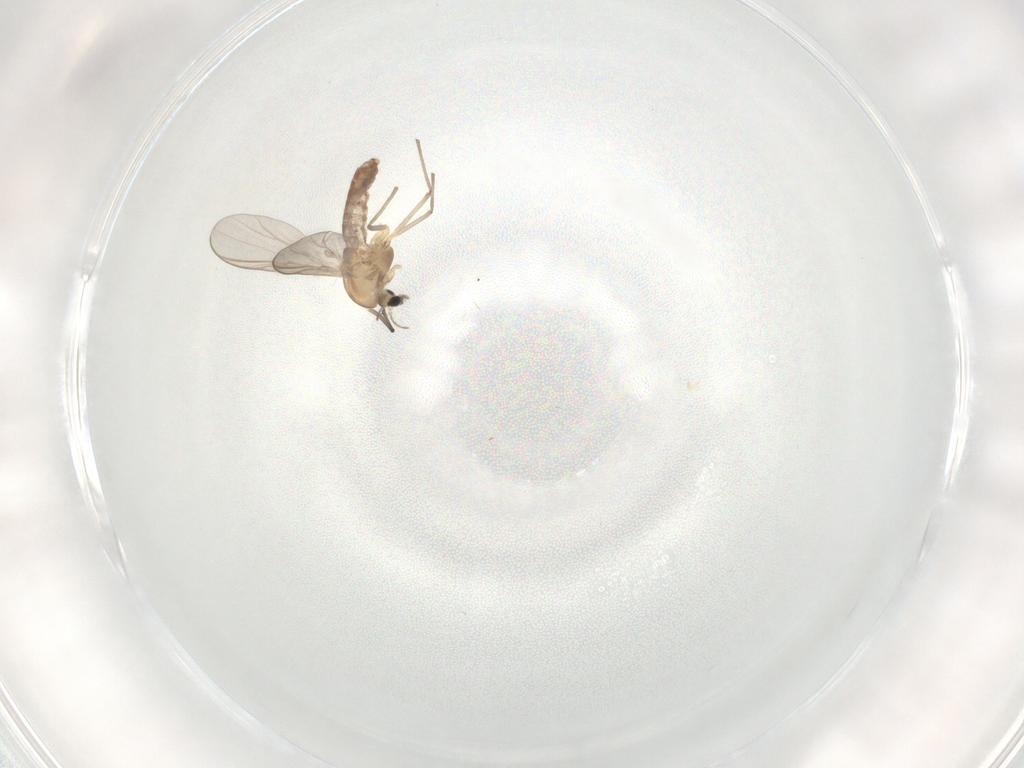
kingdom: Animalia
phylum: Arthropoda
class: Insecta
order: Diptera
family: Chironomidae
